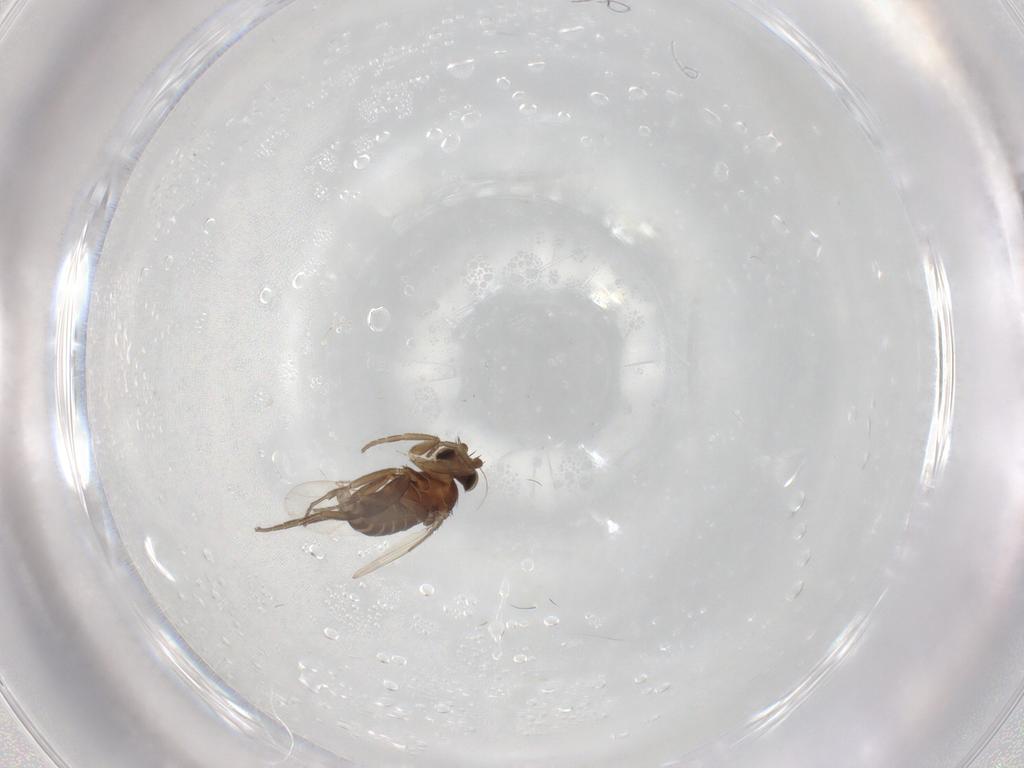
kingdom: Animalia
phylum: Arthropoda
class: Insecta
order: Diptera
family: Phoridae
